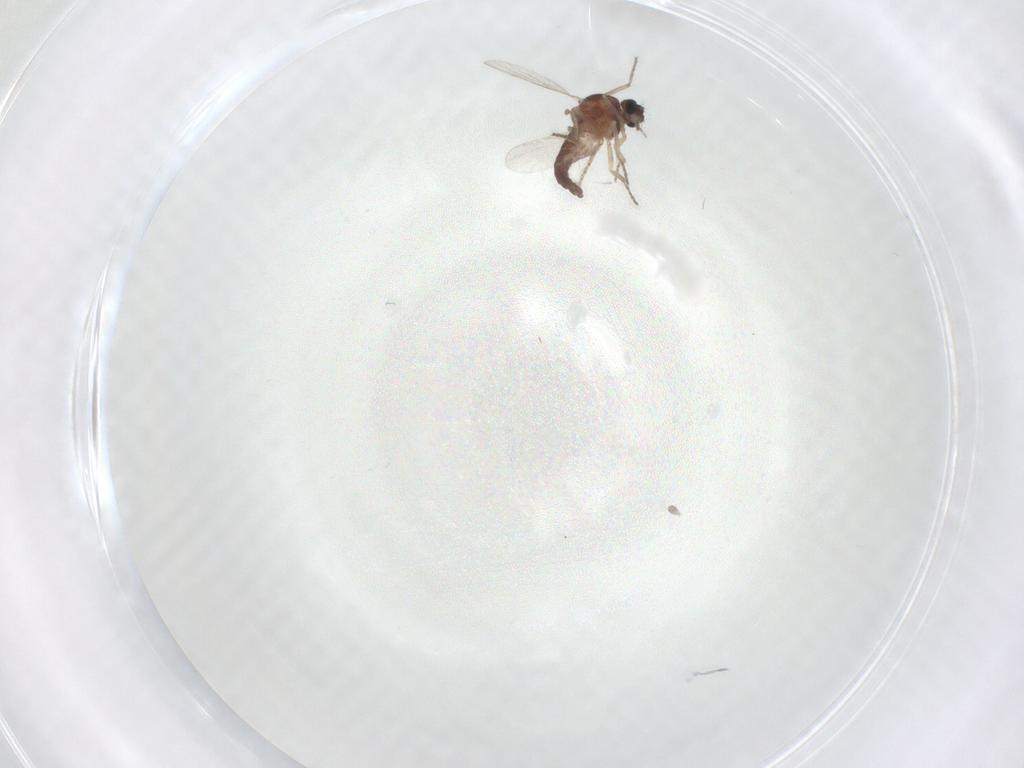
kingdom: Animalia
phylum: Arthropoda
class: Insecta
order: Diptera
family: Ceratopogonidae
